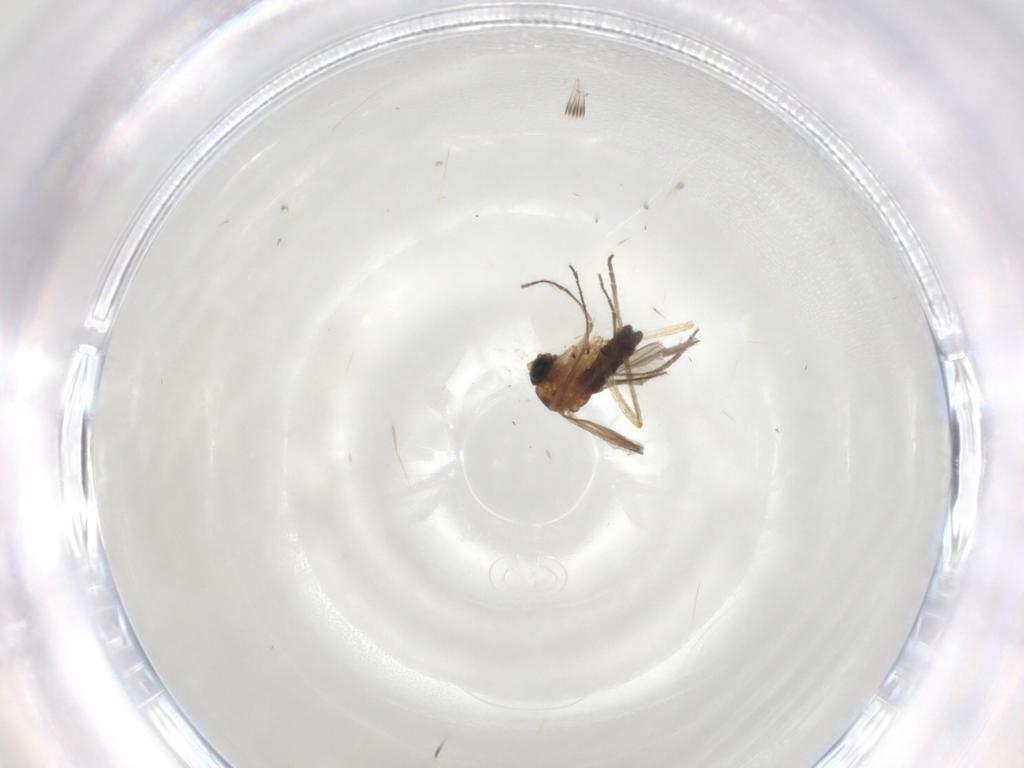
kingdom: Animalia
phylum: Arthropoda
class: Insecta
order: Diptera
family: Sciaridae
